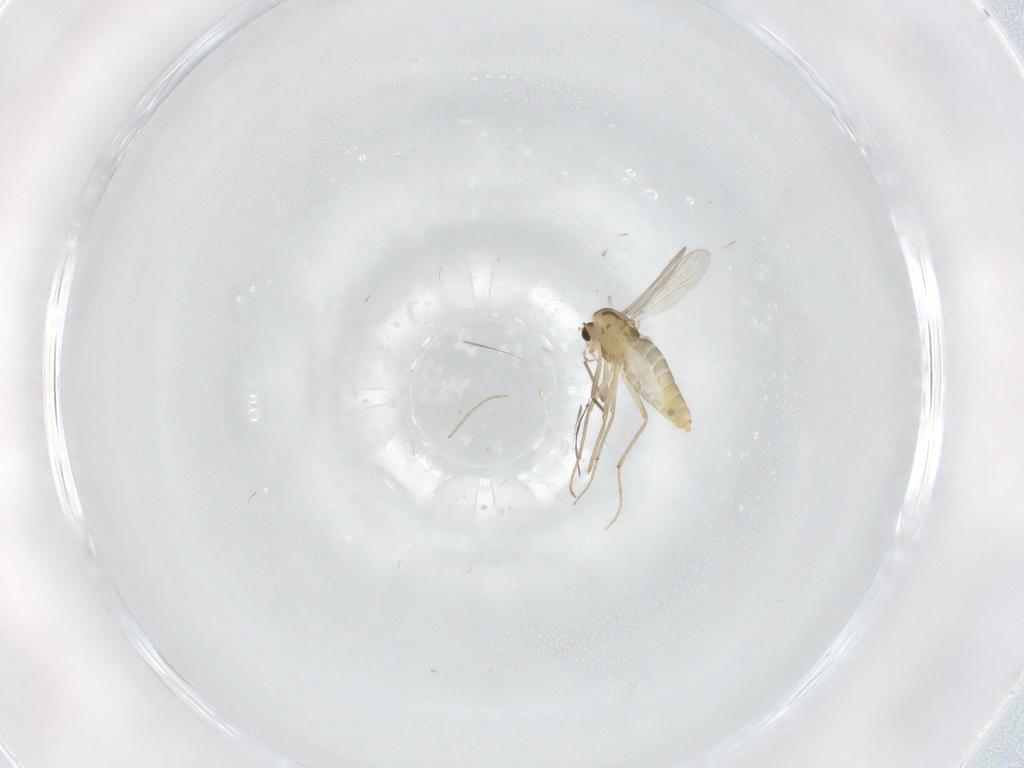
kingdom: Animalia
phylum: Arthropoda
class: Insecta
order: Diptera
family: Chironomidae
